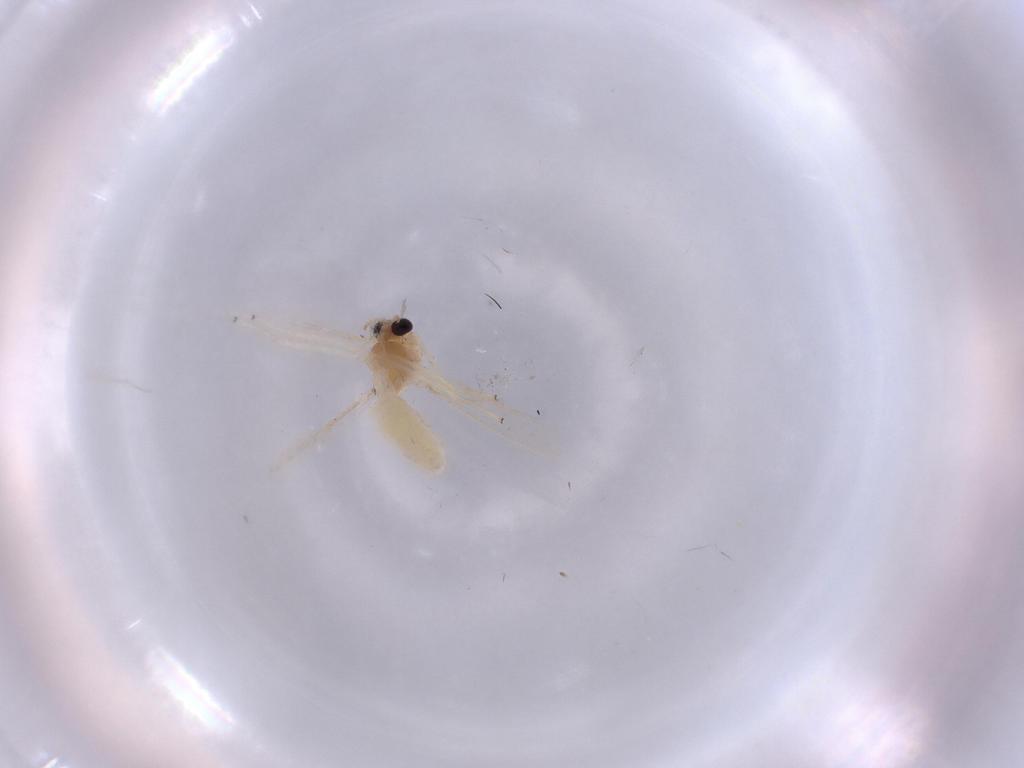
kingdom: Animalia
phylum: Arthropoda
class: Insecta
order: Diptera
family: Chironomidae
